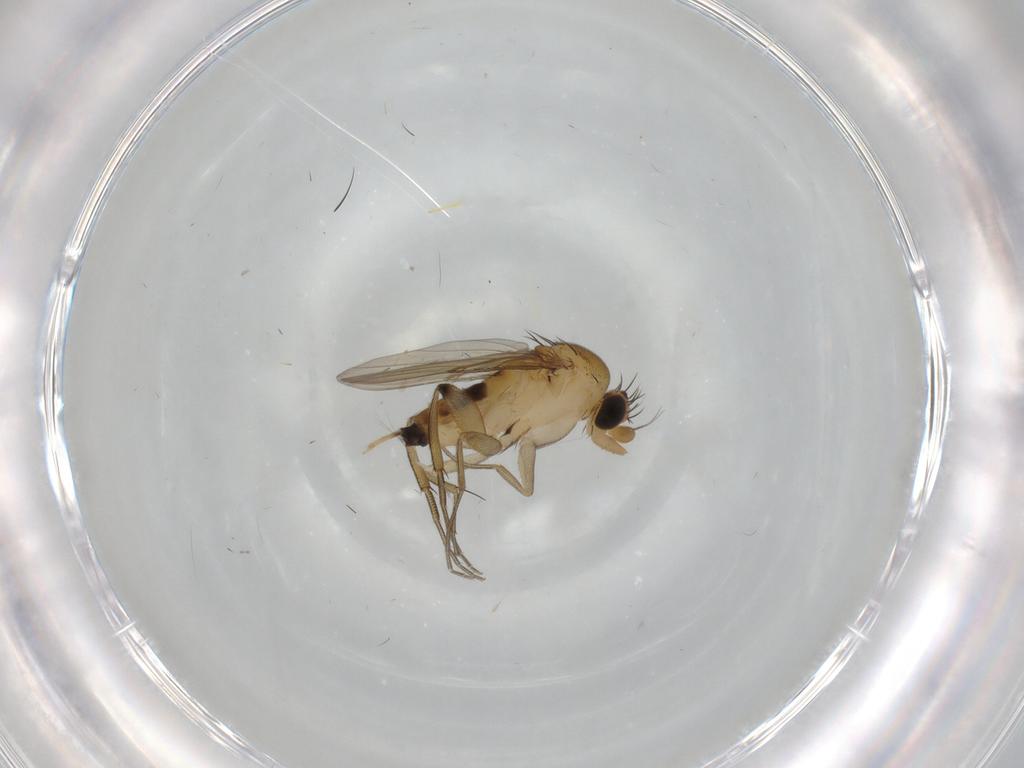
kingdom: Animalia
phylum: Arthropoda
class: Insecta
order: Diptera
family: Phoridae
